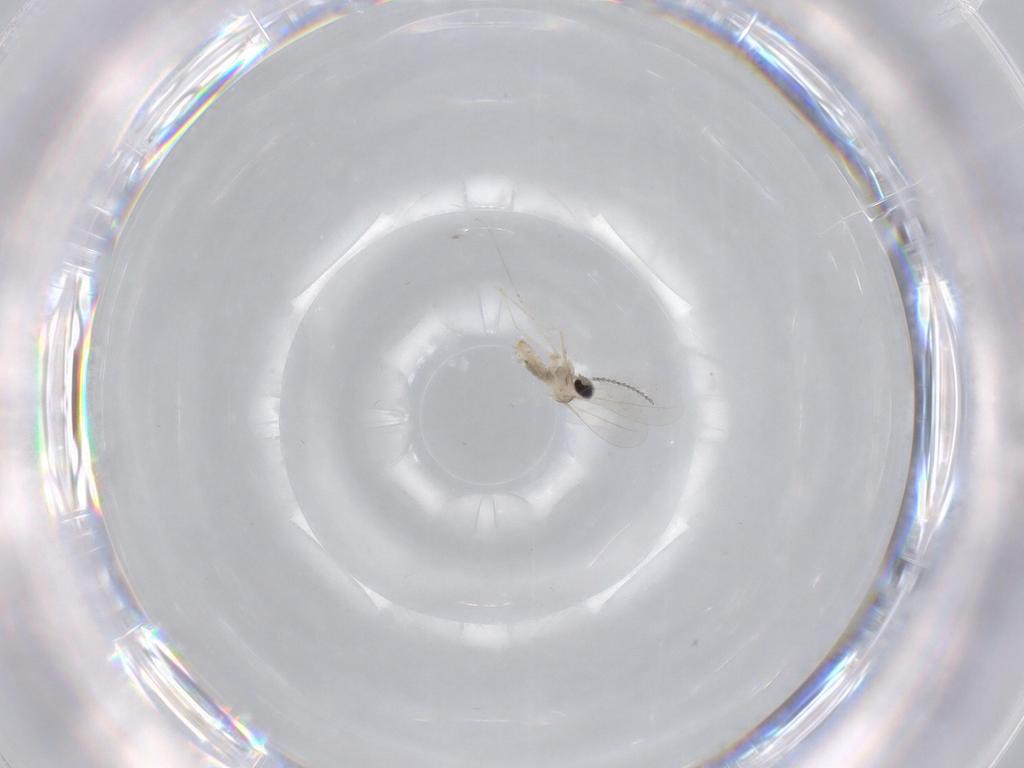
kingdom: Animalia
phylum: Arthropoda
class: Insecta
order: Diptera
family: Cecidomyiidae
